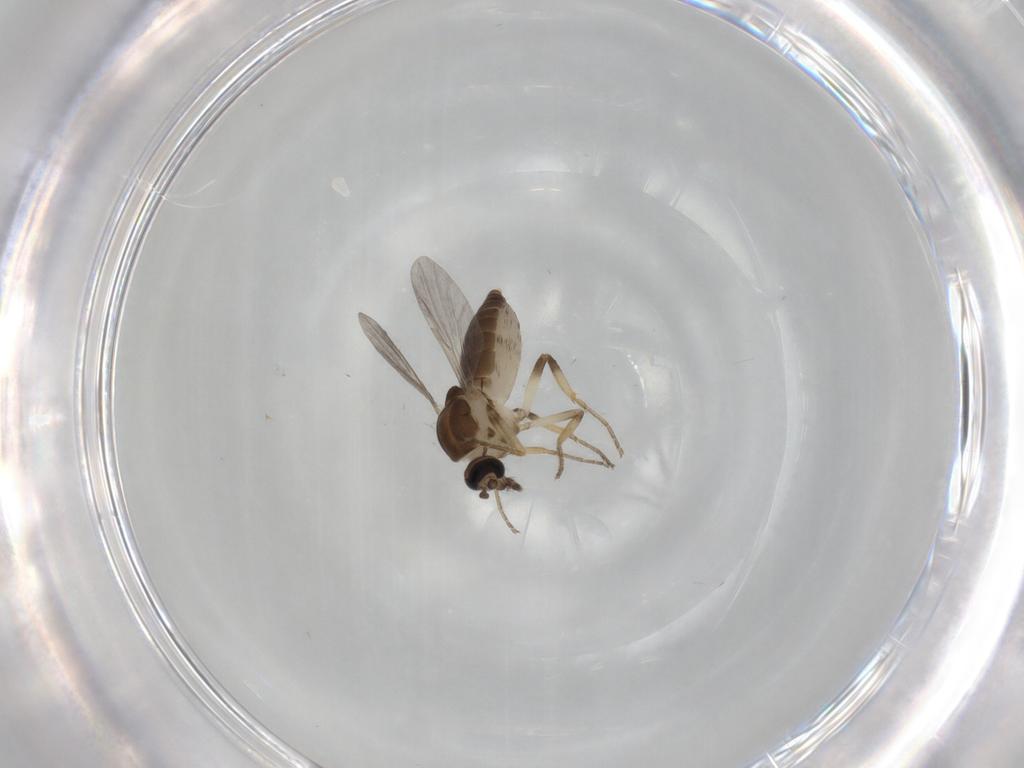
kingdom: Animalia
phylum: Arthropoda
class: Insecta
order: Diptera
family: Ceratopogonidae
